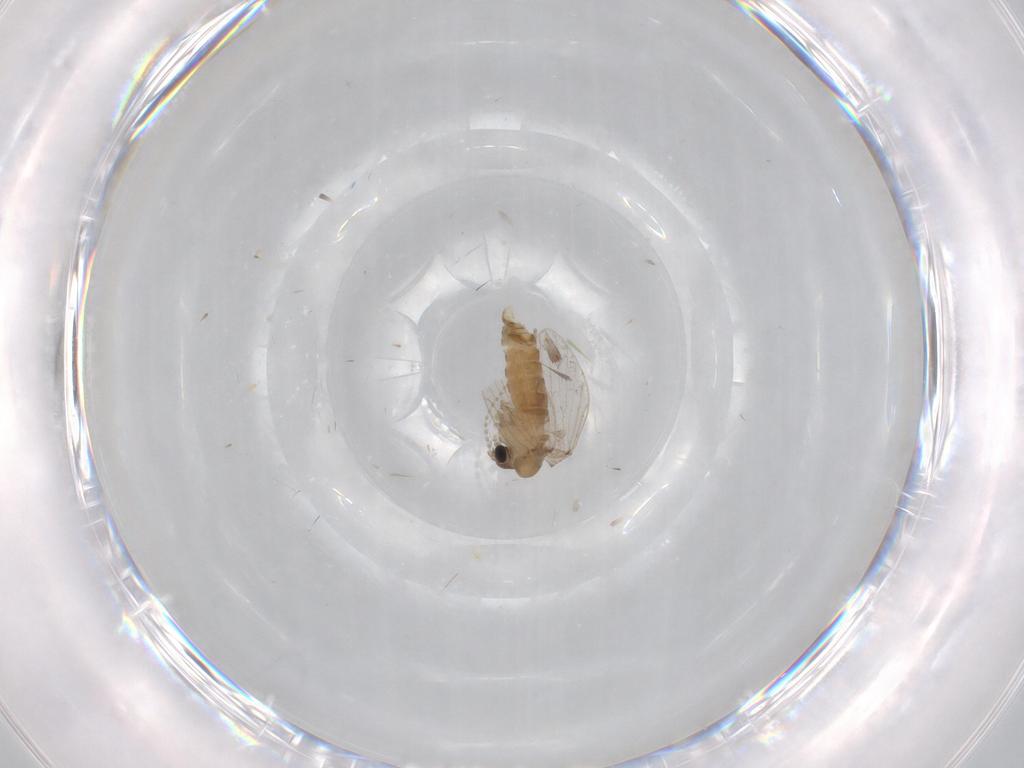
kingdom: Animalia
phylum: Arthropoda
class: Insecta
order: Diptera
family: Psychodidae
